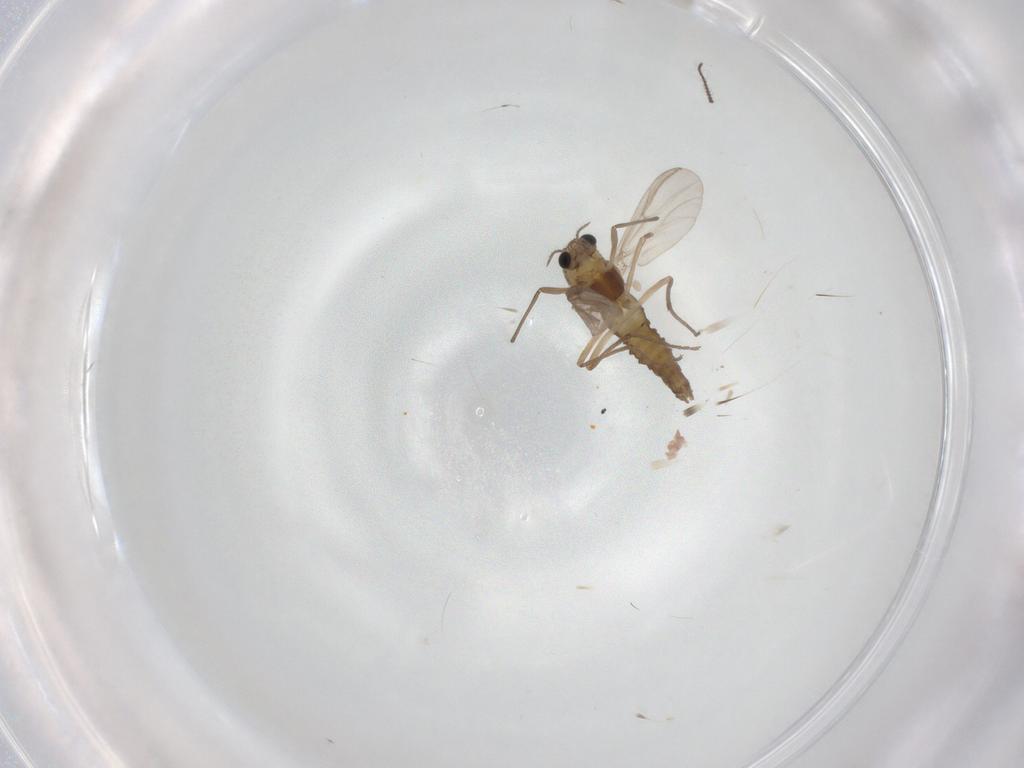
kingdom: Animalia
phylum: Arthropoda
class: Insecta
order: Diptera
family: Chironomidae
